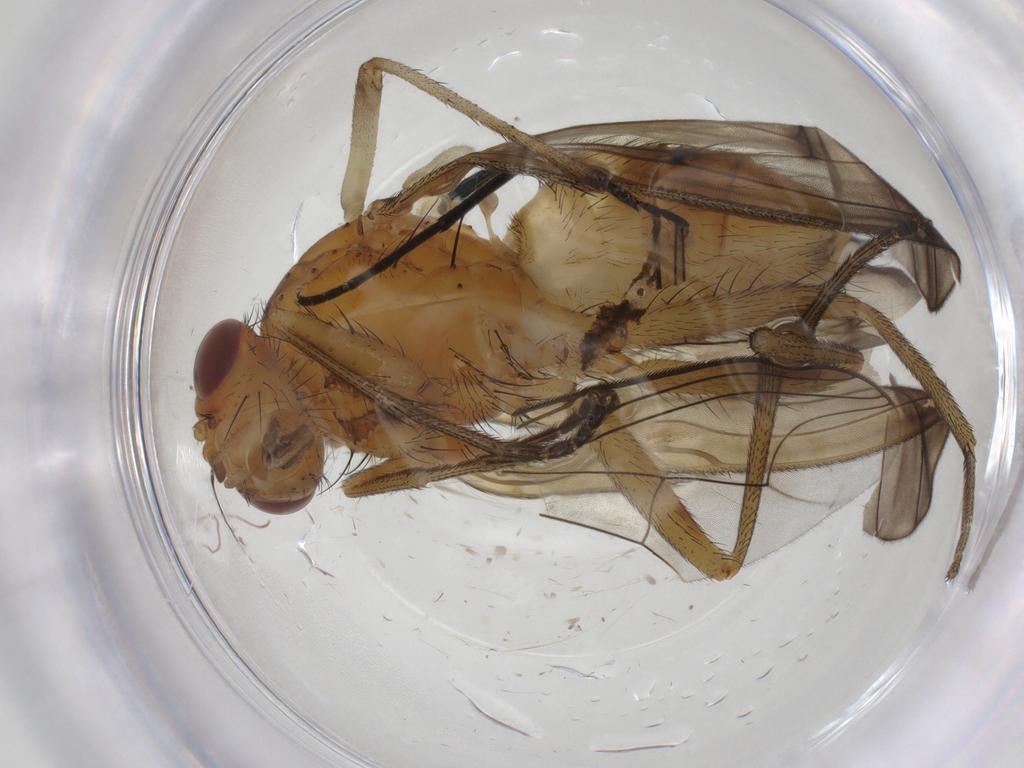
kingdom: Animalia
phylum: Arthropoda
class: Insecta
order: Diptera
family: Dolichopodidae
